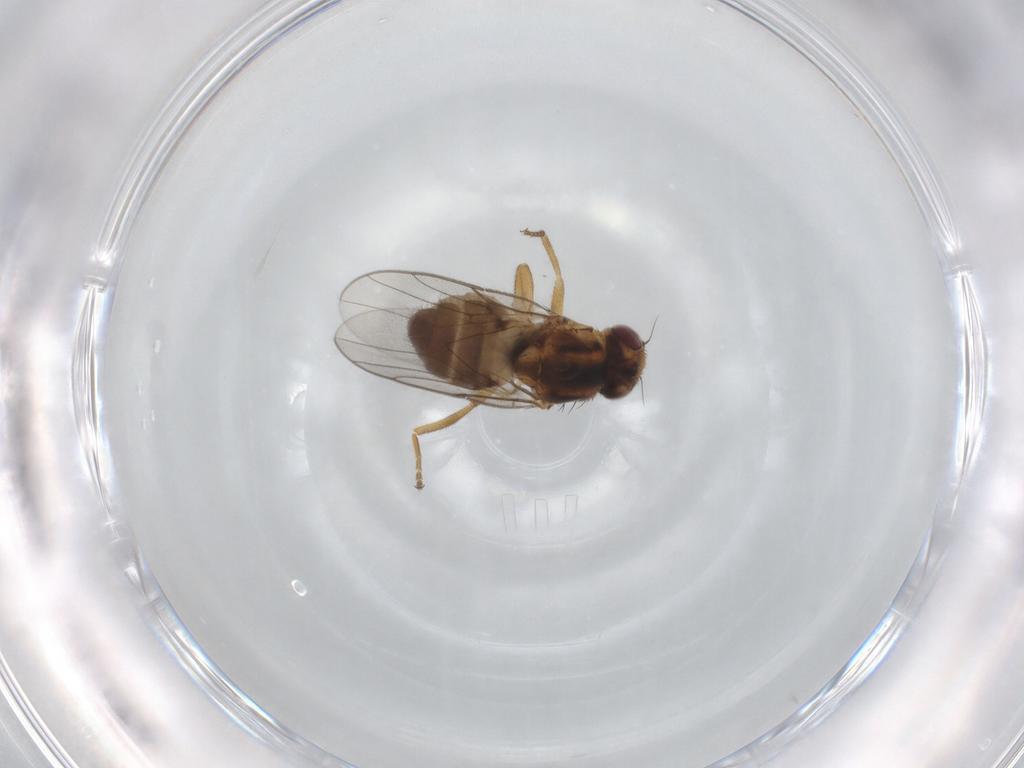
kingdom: Animalia
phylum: Arthropoda
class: Insecta
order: Diptera
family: Chloropidae
